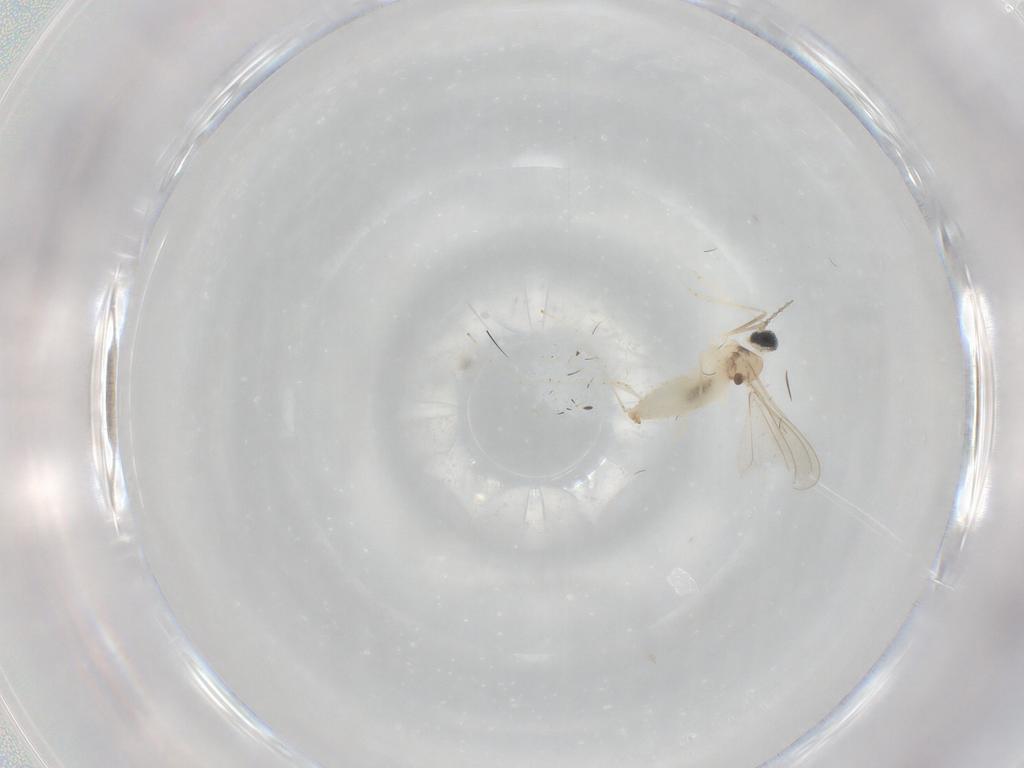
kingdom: Animalia
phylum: Arthropoda
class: Insecta
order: Diptera
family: Cecidomyiidae
